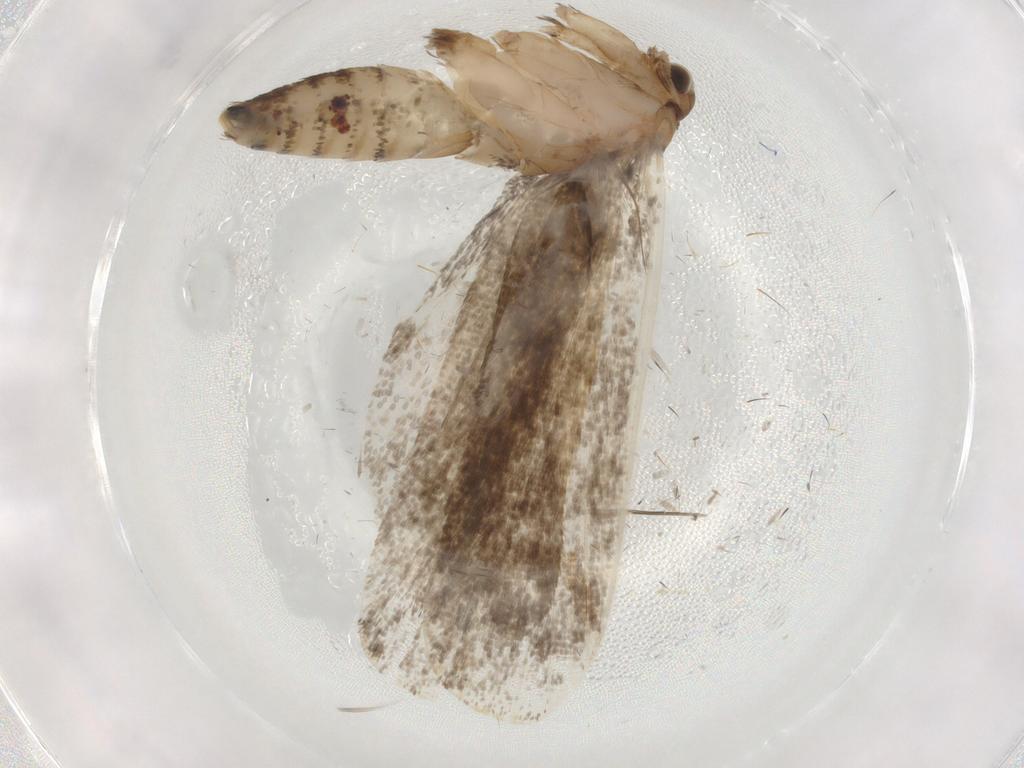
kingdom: Animalia
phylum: Arthropoda
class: Insecta
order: Lepidoptera
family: Tineidae
